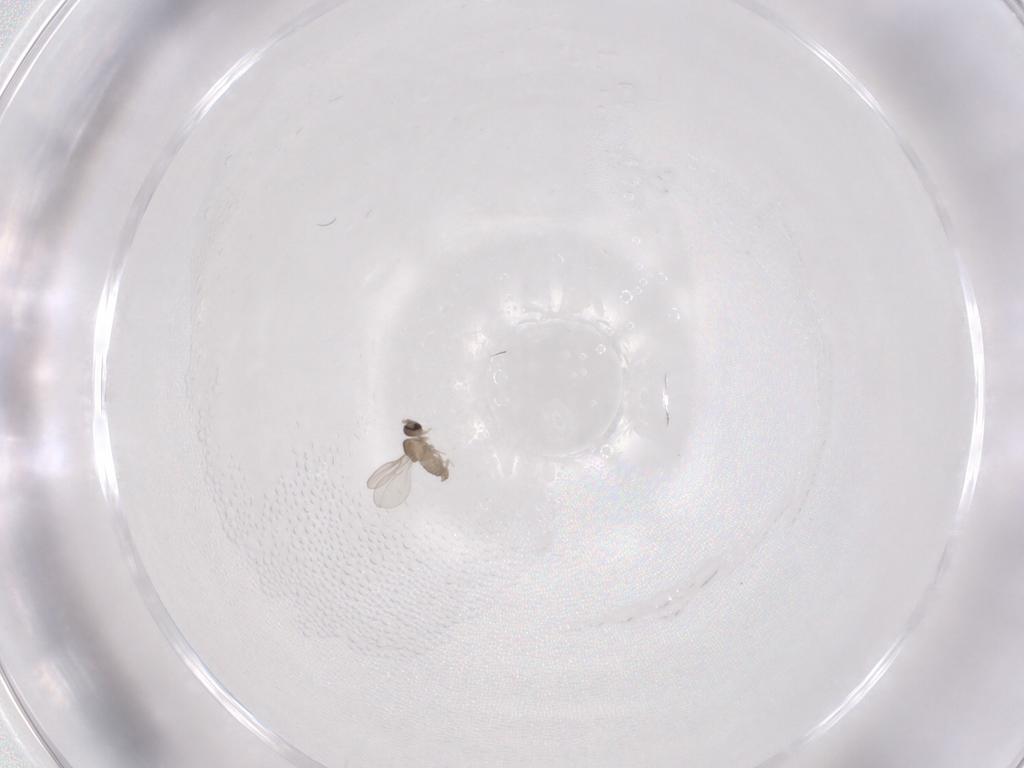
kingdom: Animalia
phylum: Arthropoda
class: Insecta
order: Diptera
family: Cecidomyiidae
